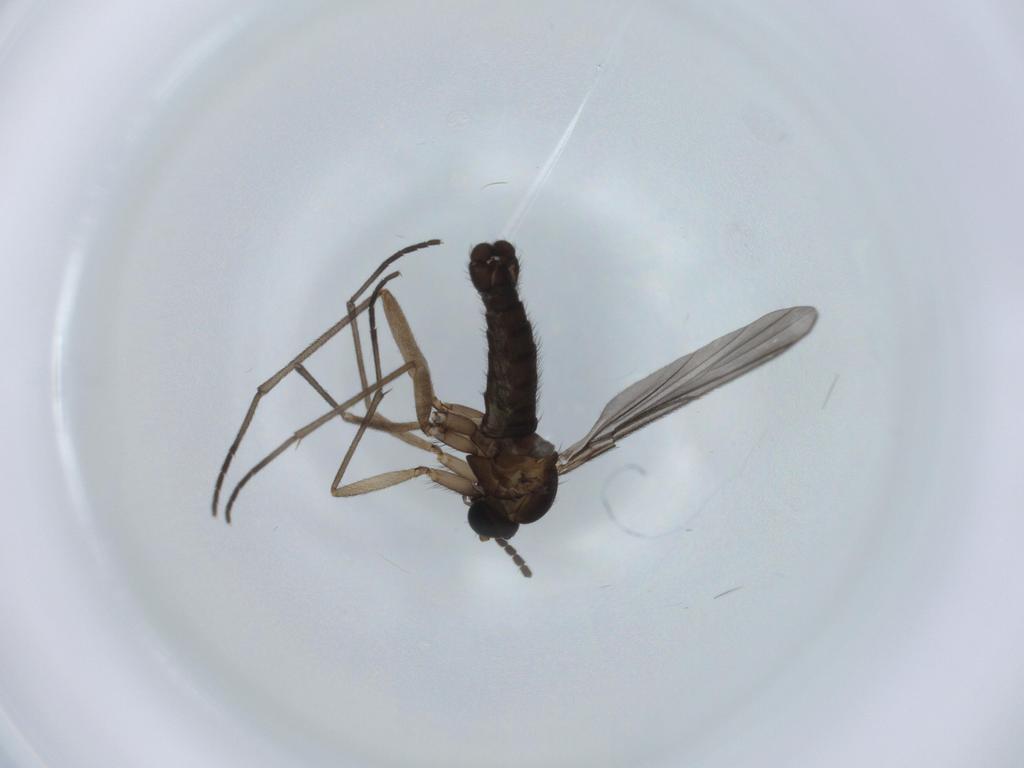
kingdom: Animalia
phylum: Arthropoda
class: Insecta
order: Diptera
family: Sciaridae
